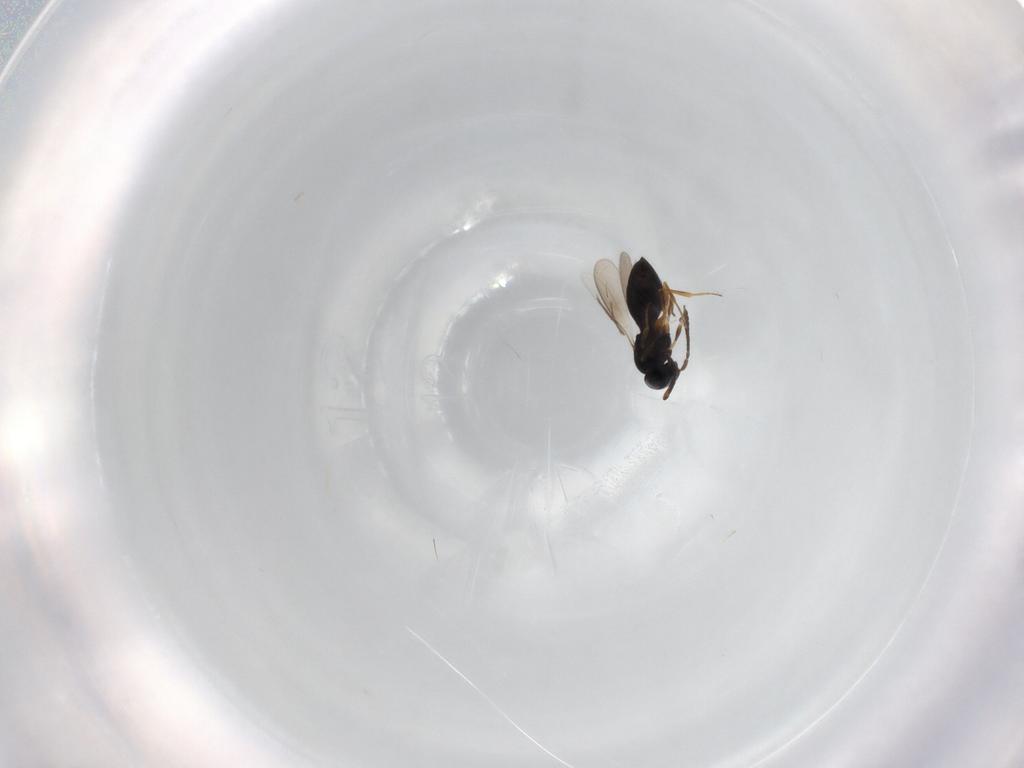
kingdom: Animalia
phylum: Arthropoda
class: Insecta
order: Hymenoptera
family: Scelionidae
